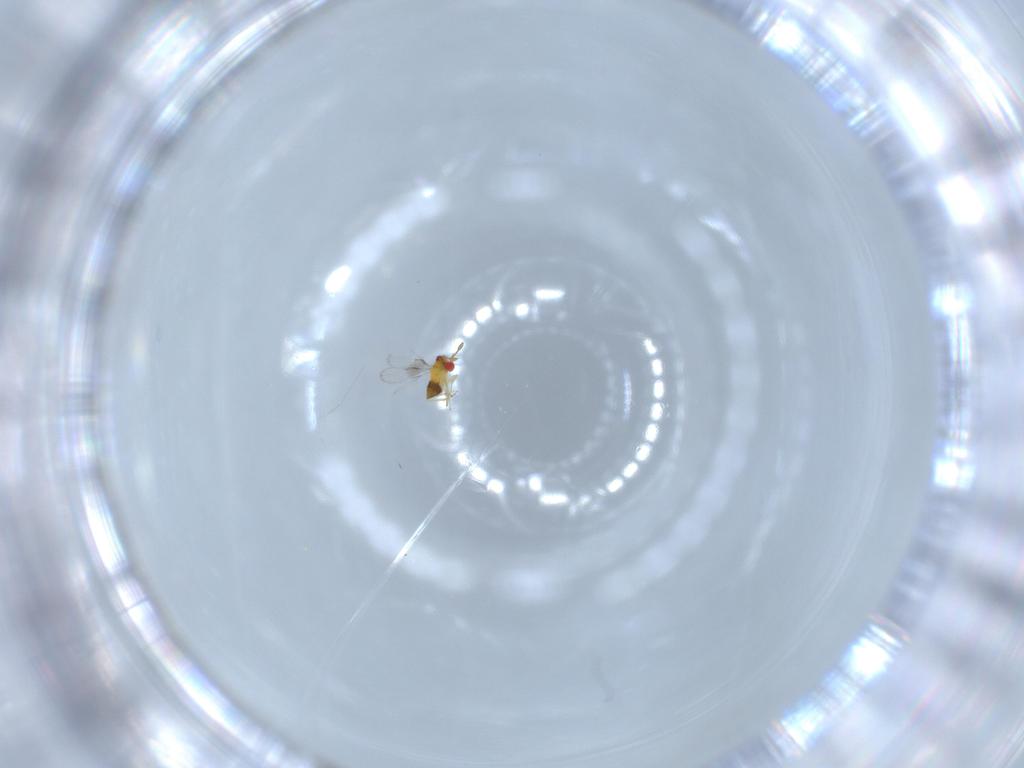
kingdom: Animalia
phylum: Arthropoda
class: Insecta
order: Hymenoptera
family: Trichogrammatidae
